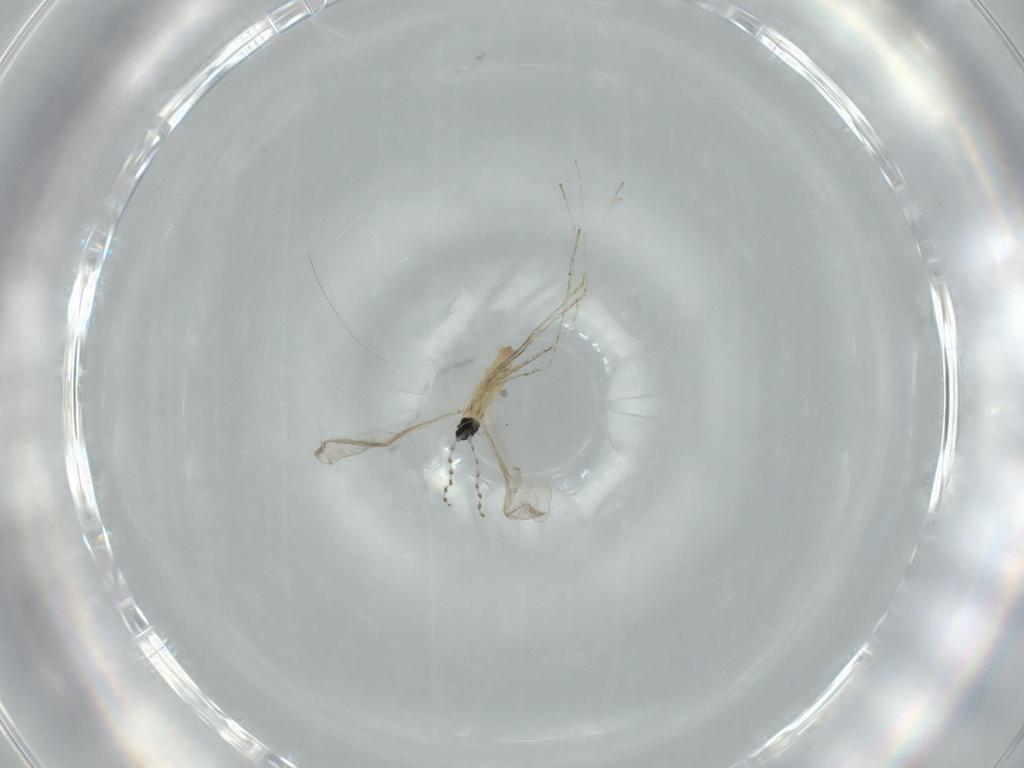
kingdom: Animalia
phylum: Arthropoda
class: Insecta
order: Diptera
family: Cecidomyiidae
